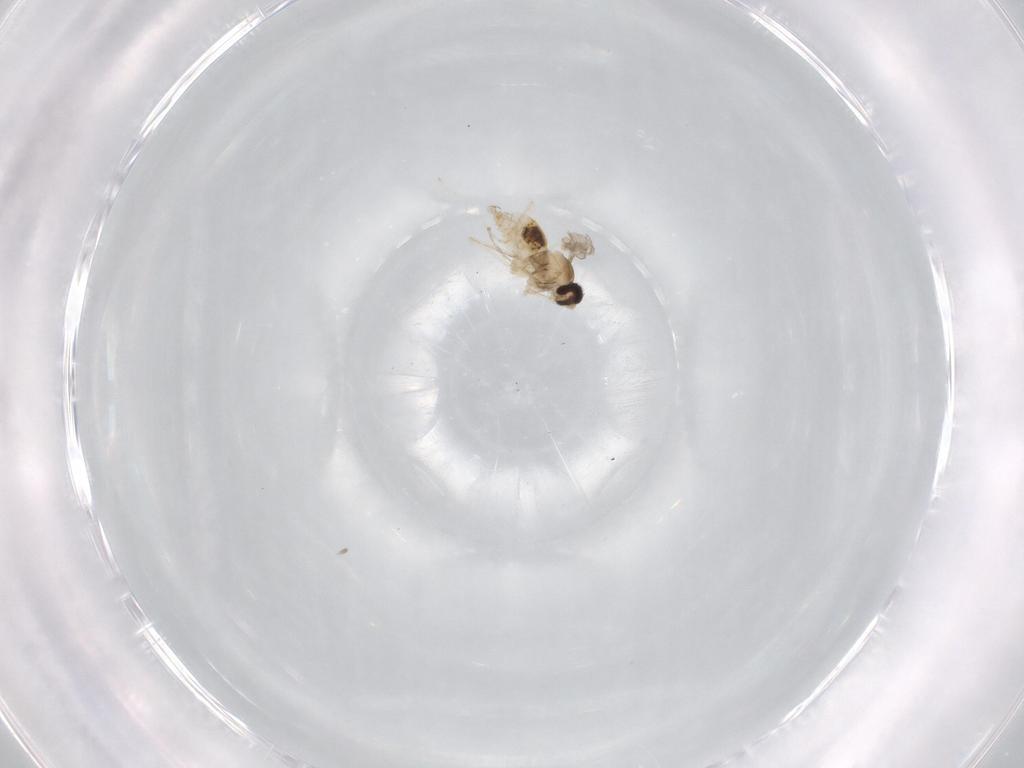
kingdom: Animalia
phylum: Arthropoda
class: Insecta
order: Diptera
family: Cecidomyiidae
